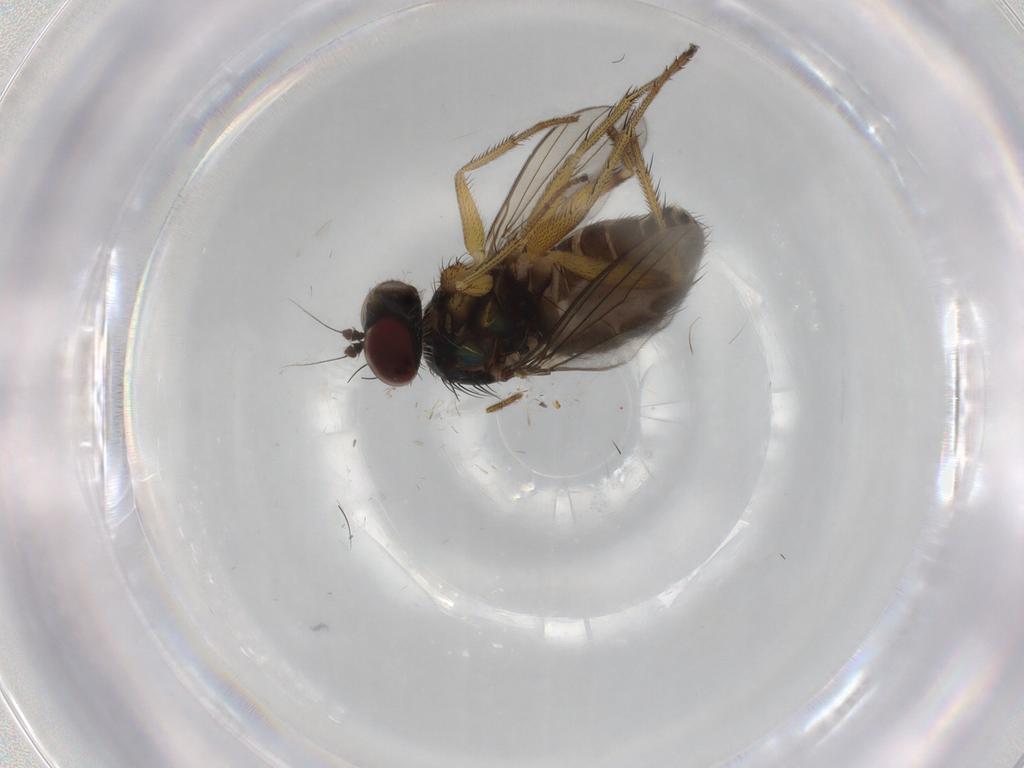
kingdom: Animalia
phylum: Arthropoda
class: Insecta
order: Diptera
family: Dolichopodidae
